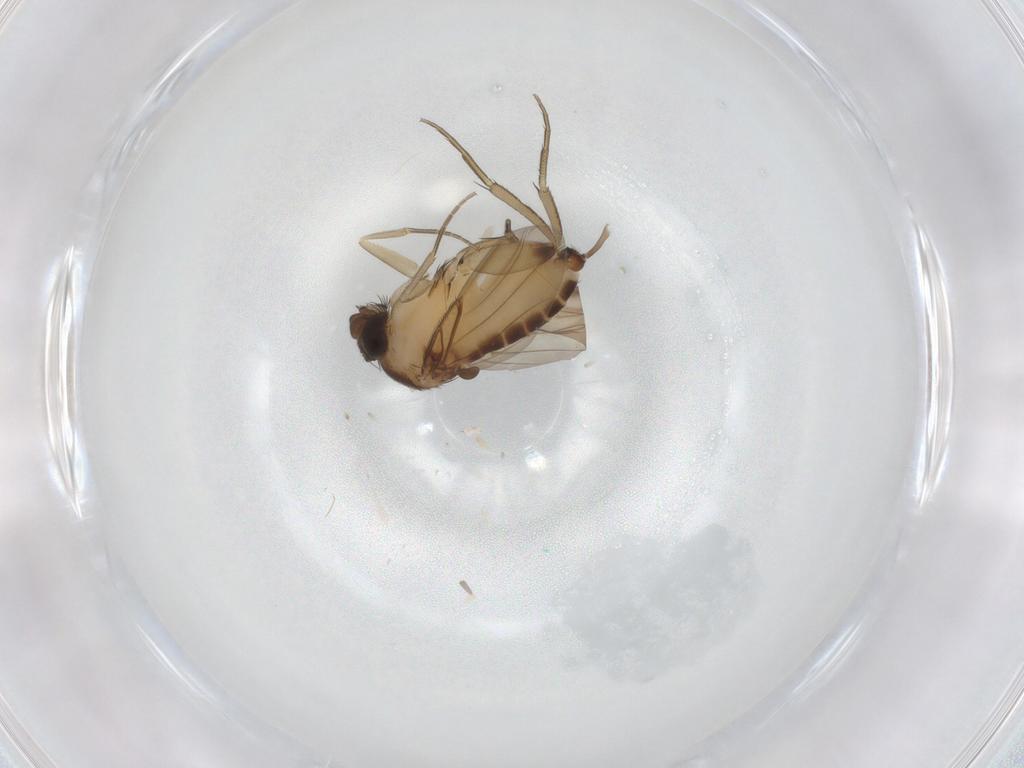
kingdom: Animalia
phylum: Arthropoda
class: Insecta
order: Diptera
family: Phoridae
